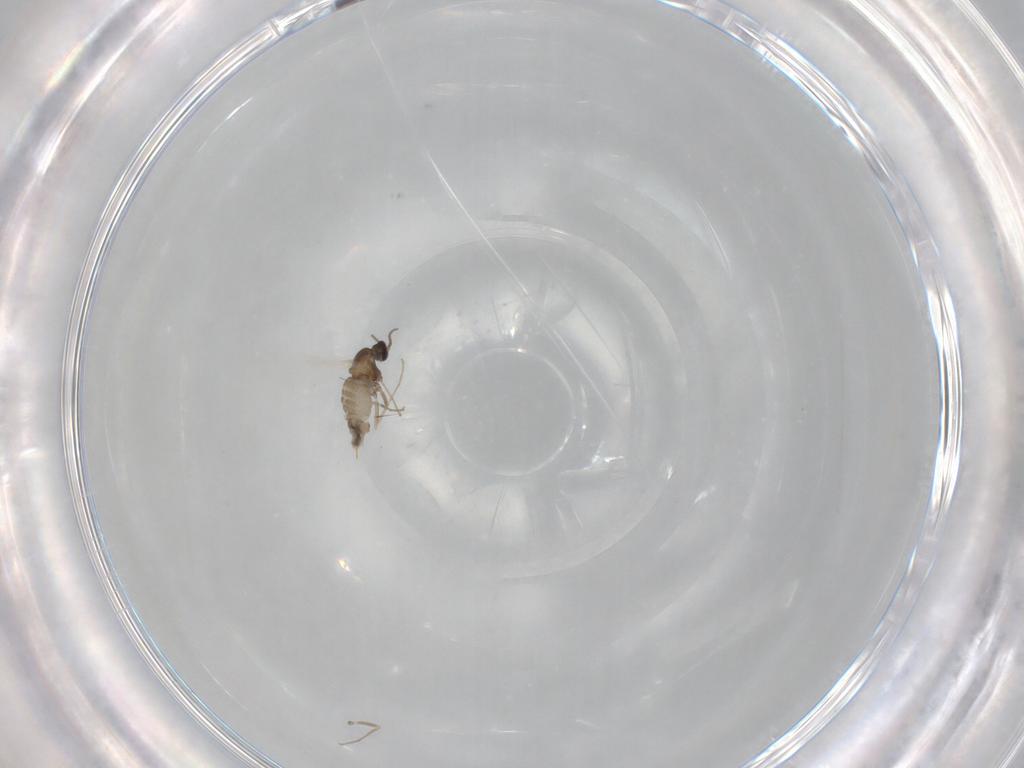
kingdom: Animalia
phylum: Arthropoda
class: Insecta
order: Diptera
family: Cecidomyiidae
